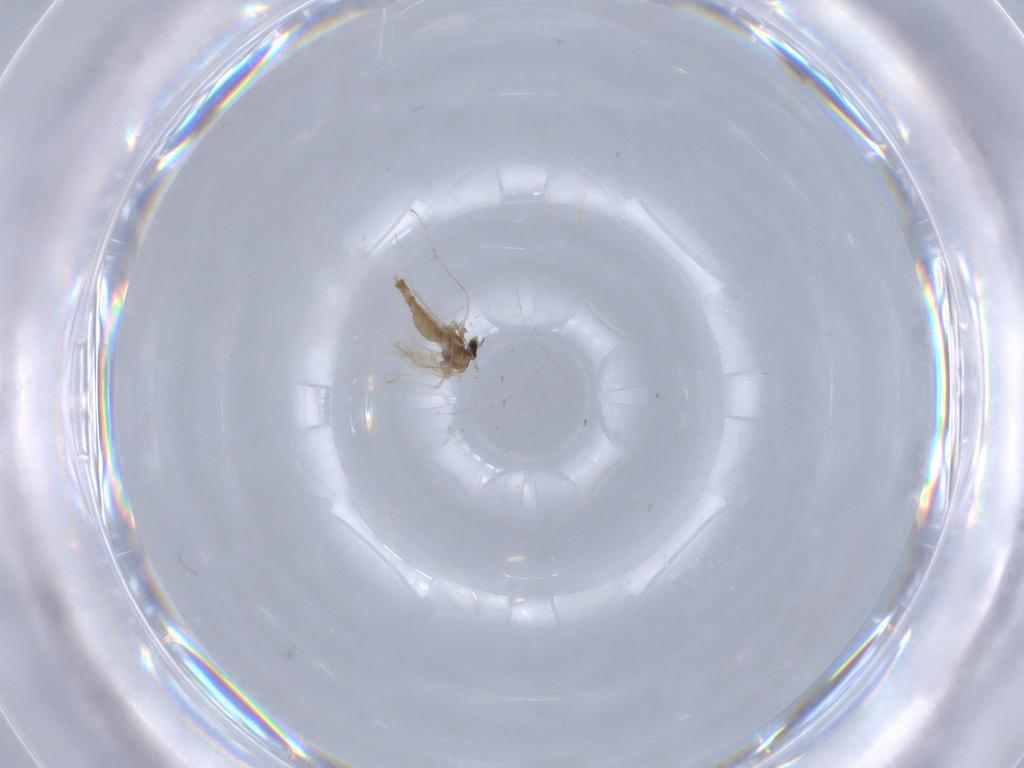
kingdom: Animalia
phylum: Arthropoda
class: Insecta
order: Diptera
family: Cecidomyiidae
